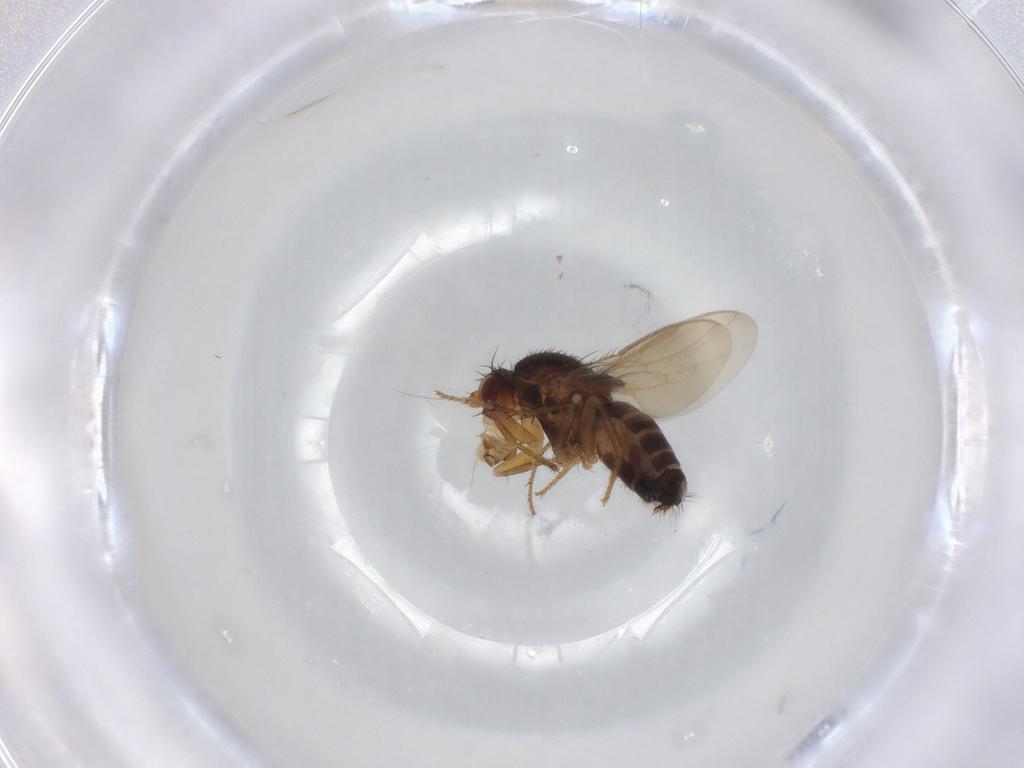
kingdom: Animalia
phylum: Arthropoda
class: Insecta
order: Diptera
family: Sphaeroceridae
